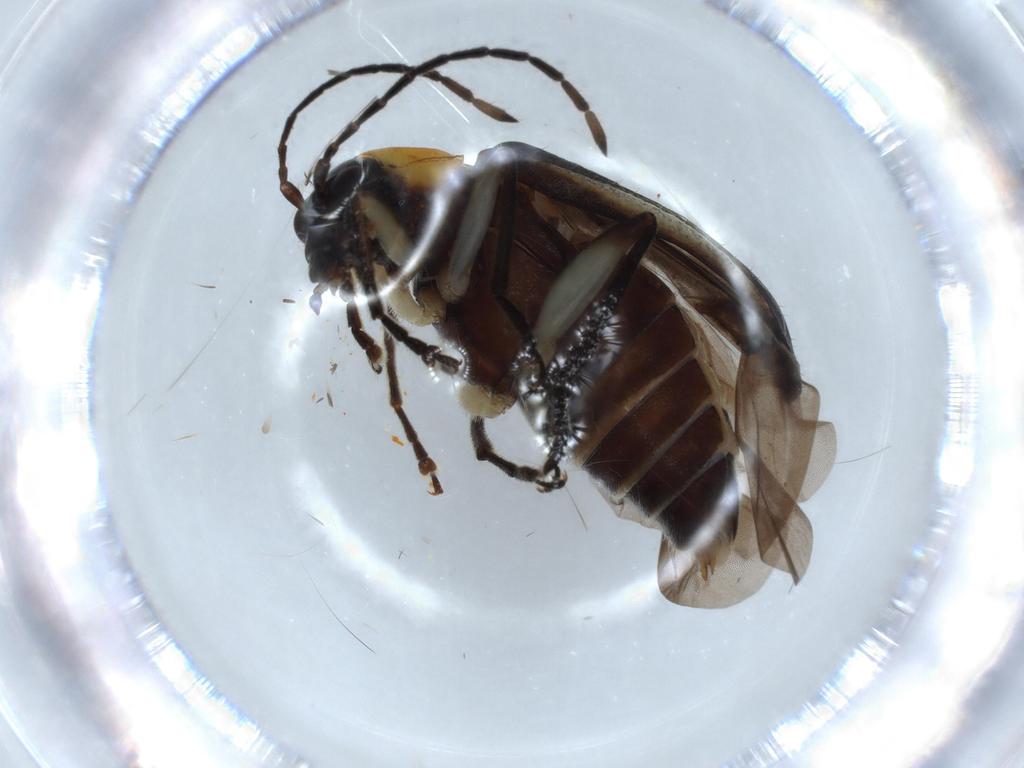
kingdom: Animalia
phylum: Arthropoda
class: Insecta
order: Coleoptera
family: Chrysomelidae
